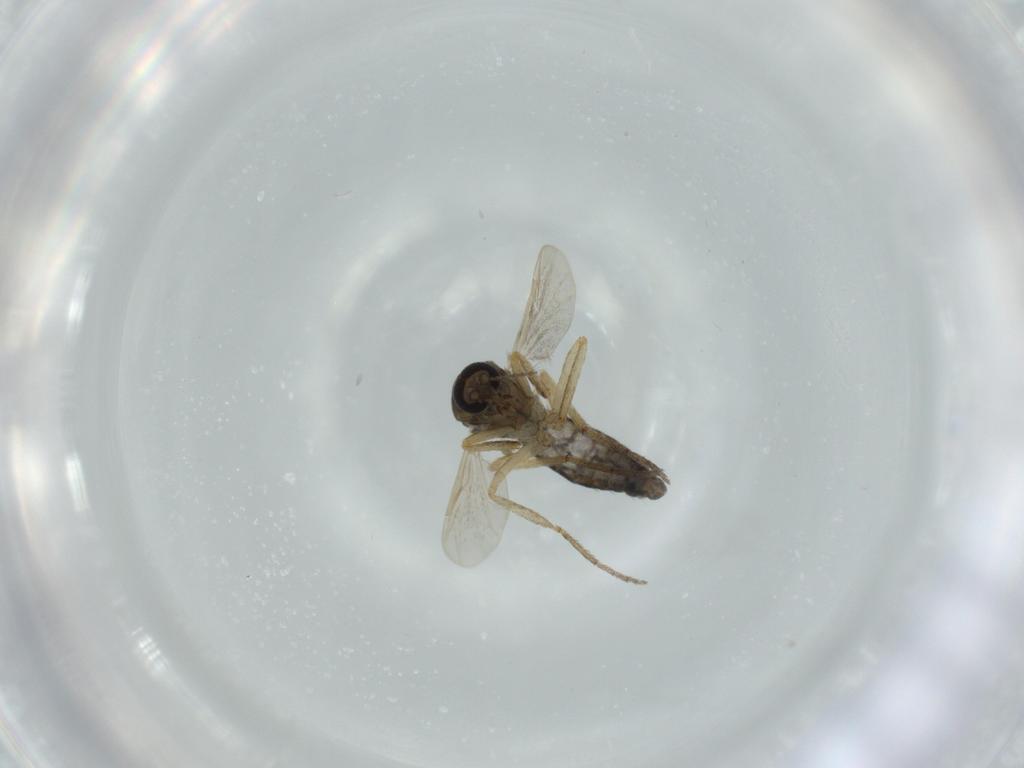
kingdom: Animalia
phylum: Arthropoda
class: Insecta
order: Diptera
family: Ceratopogonidae
